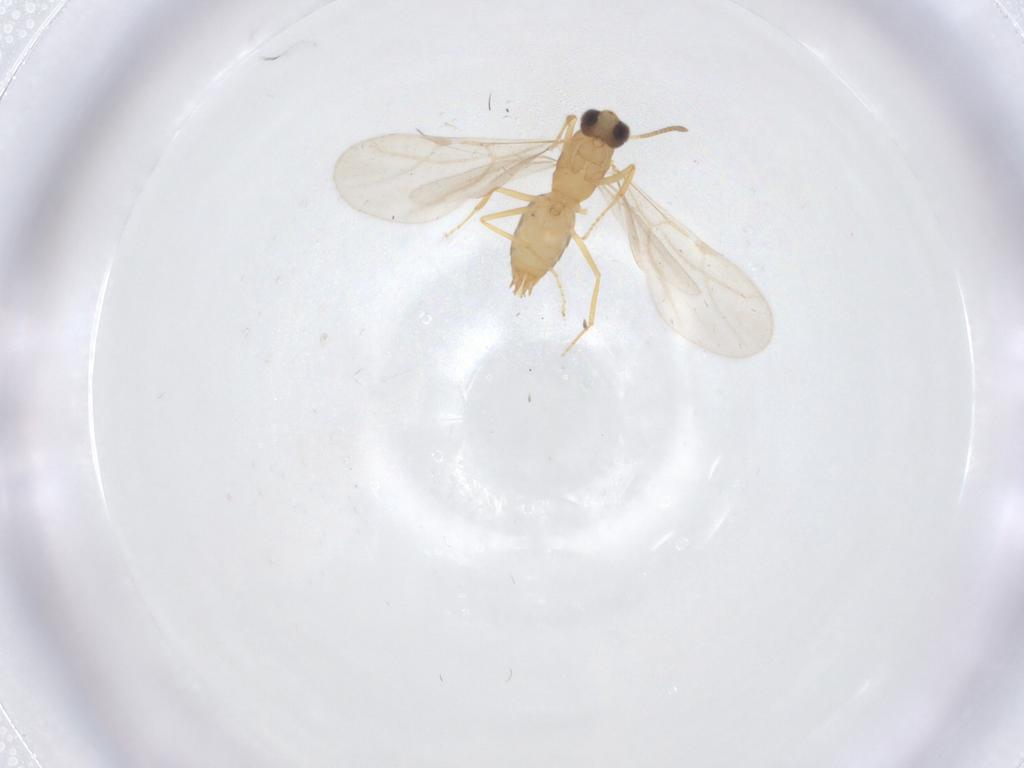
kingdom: Animalia
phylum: Arthropoda
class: Insecta
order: Hymenoptera
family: Formicidae
